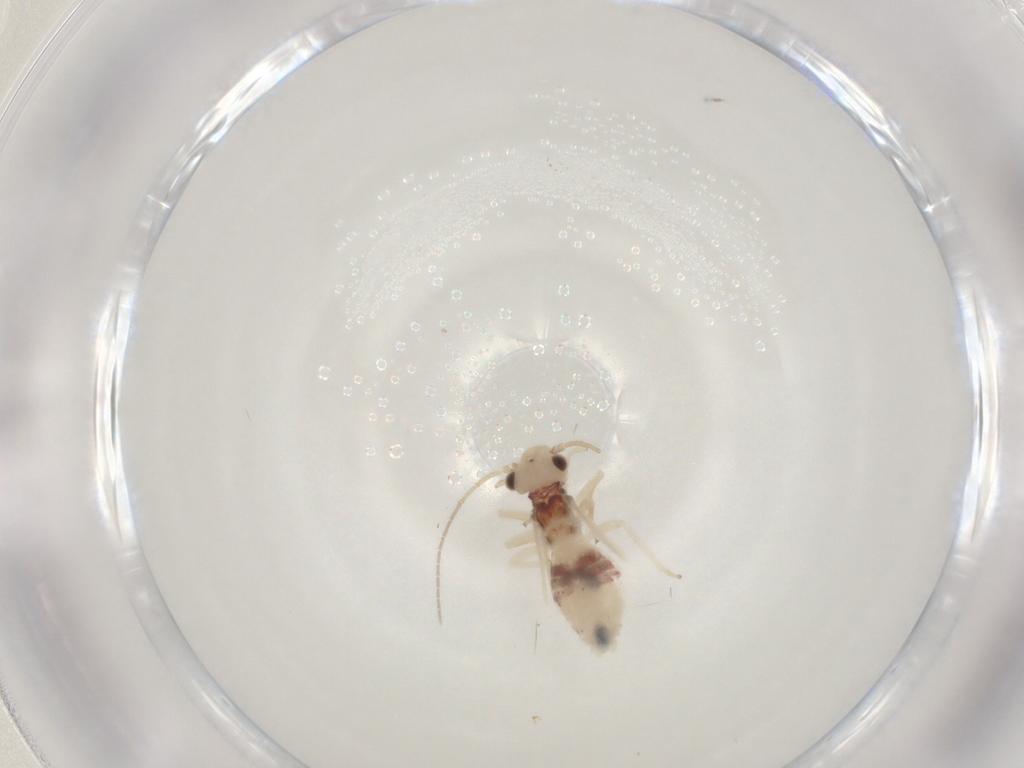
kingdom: Animalia
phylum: Arthropoda
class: Insecta
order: Psocodea
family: Caeciliusidae
